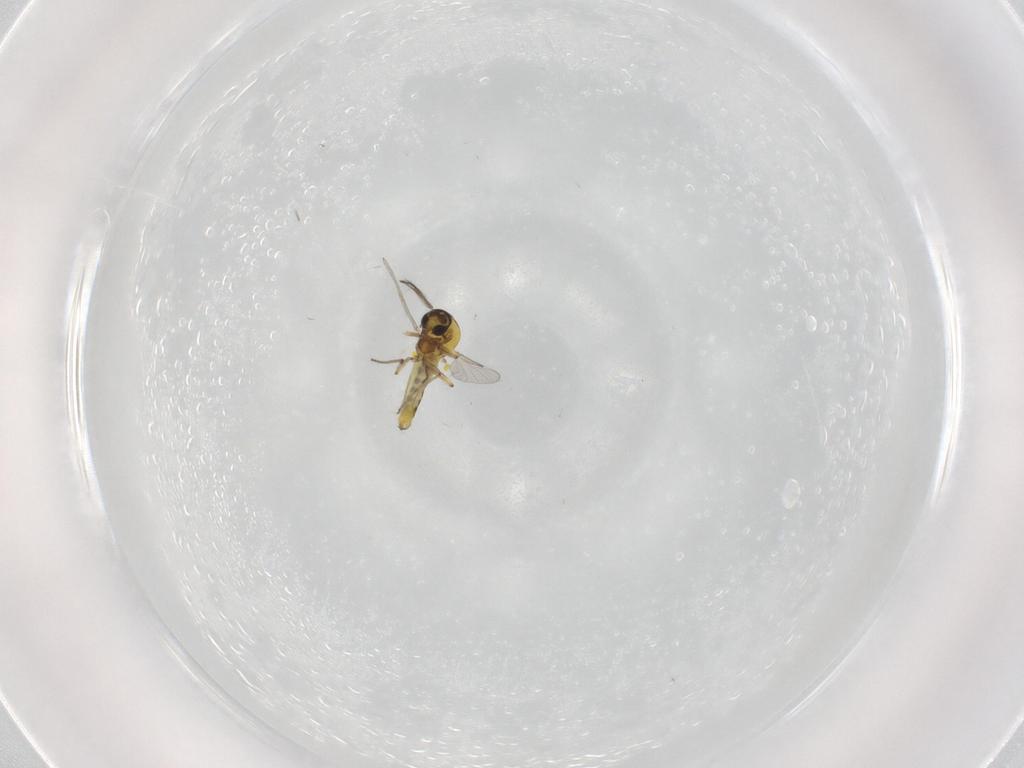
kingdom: Animalia
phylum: Arthropoda
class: Insecta
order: Diptera
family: Ceratopogonidae
